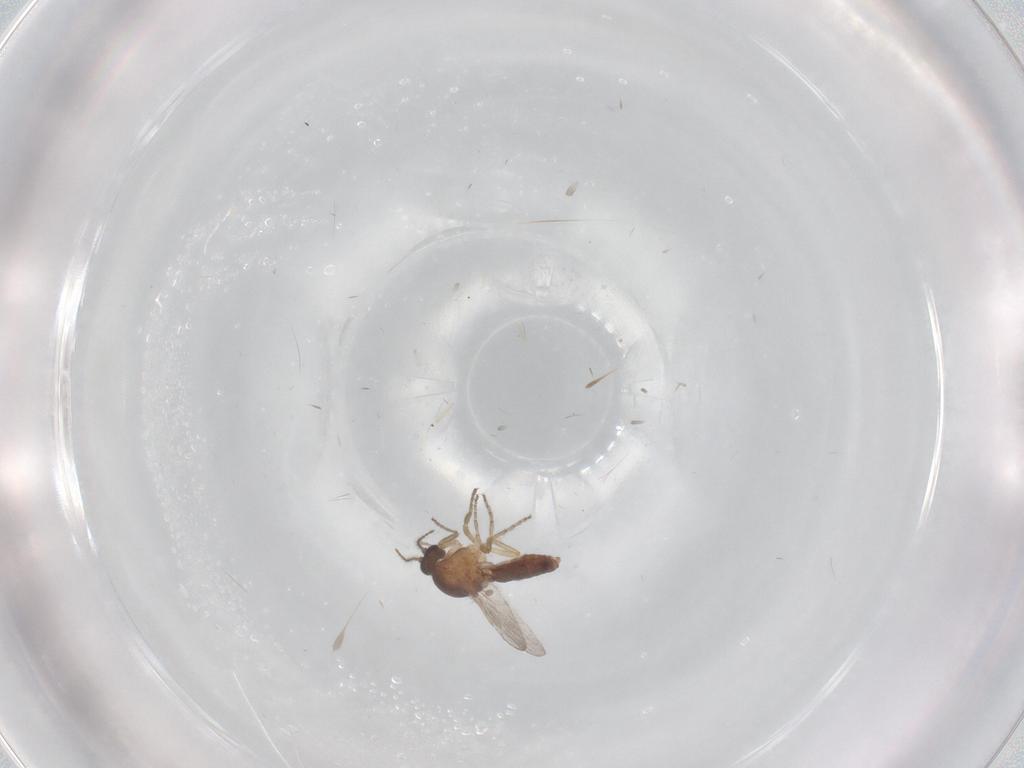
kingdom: Animalia
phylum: Arthropoda
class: Insecta
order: Diptera
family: Ceratopogonidae
